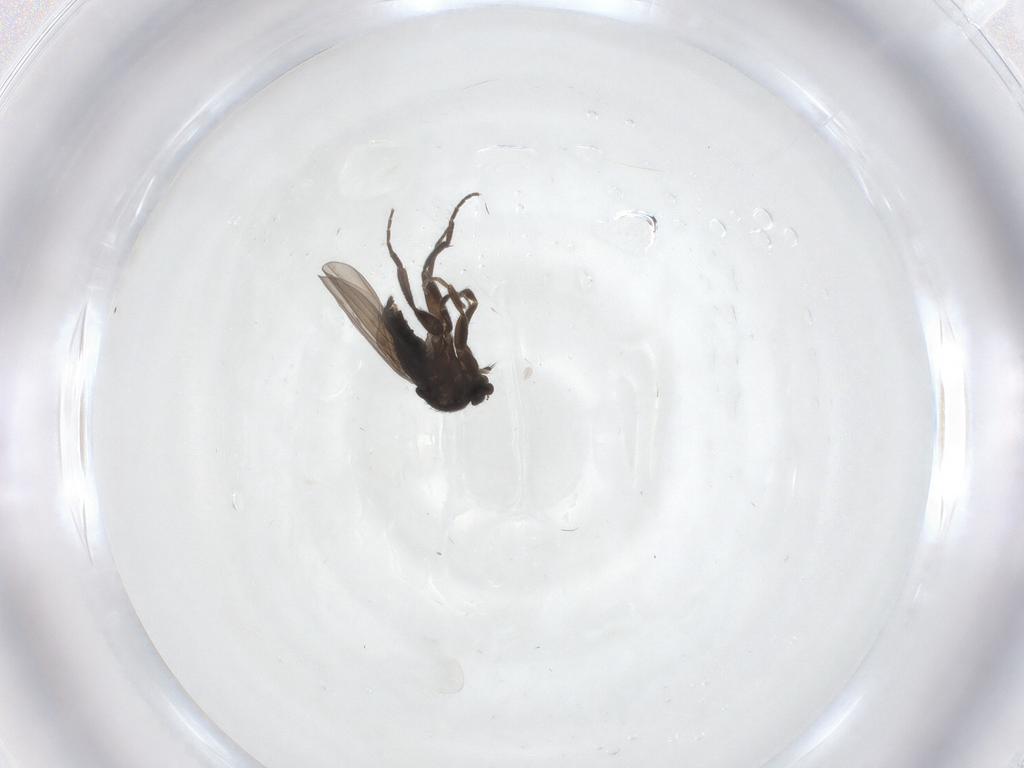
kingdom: Animalia
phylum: Arthropoda
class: Insecta
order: Diptera
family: Phoridae
